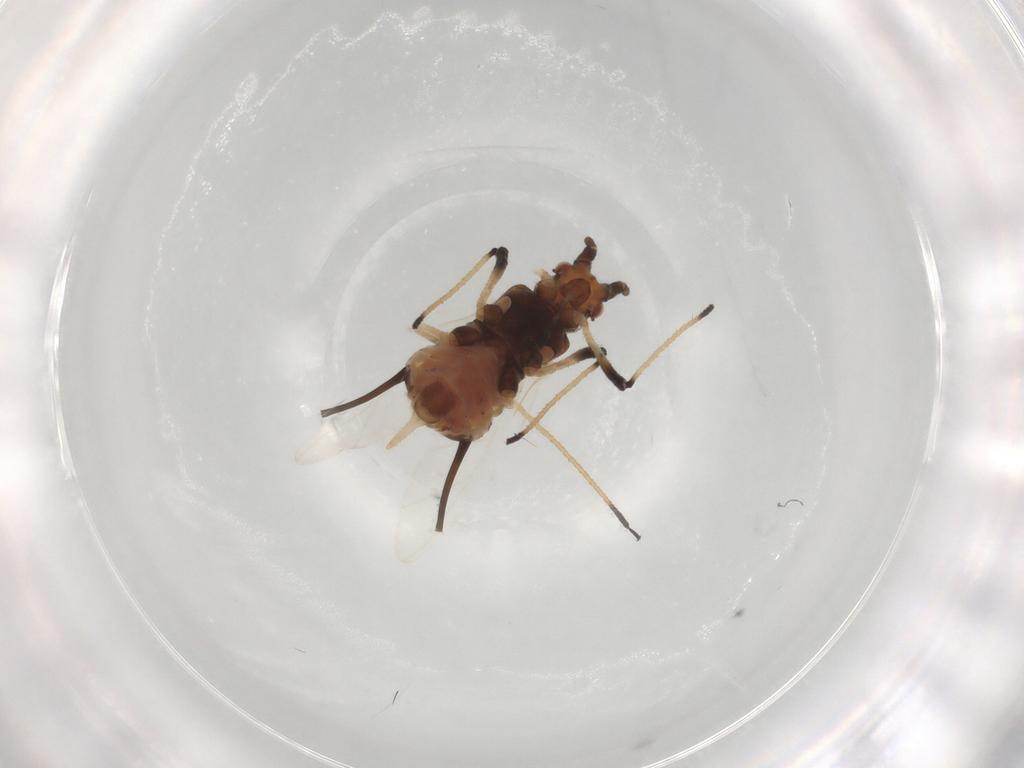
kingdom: Animalia
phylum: Arthropoda
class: Insecta
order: Hemiptera
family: Aphididae
